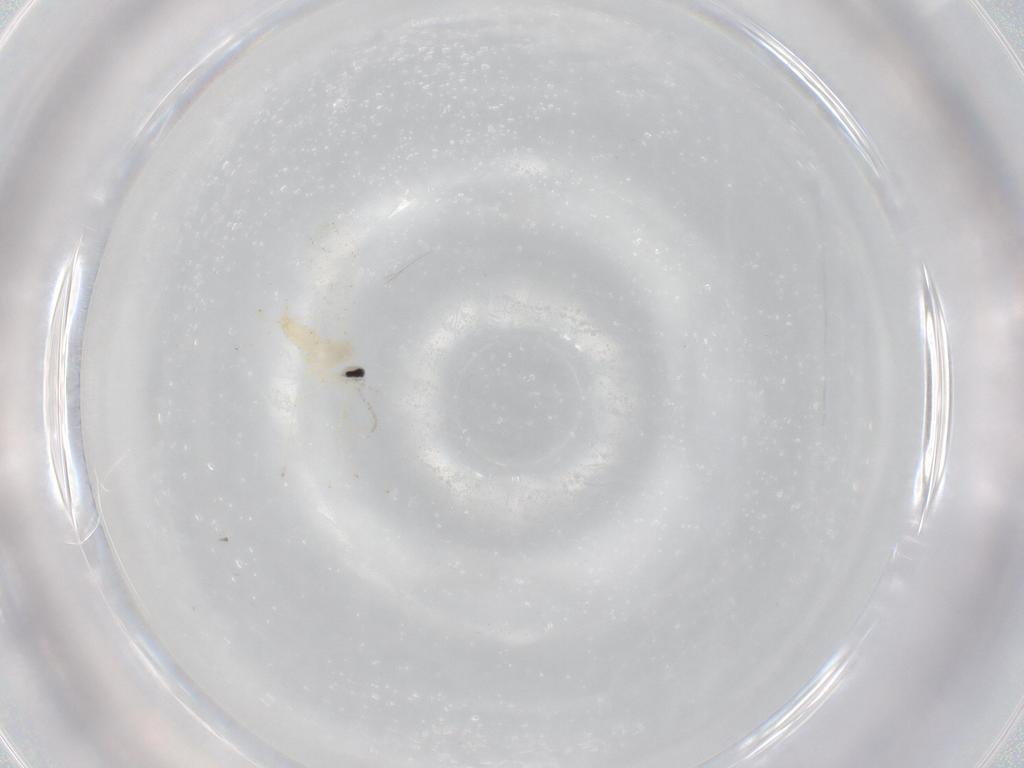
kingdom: Animalia
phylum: Arthropoda
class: Insecta
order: Diptera
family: Cecidomyiidae
